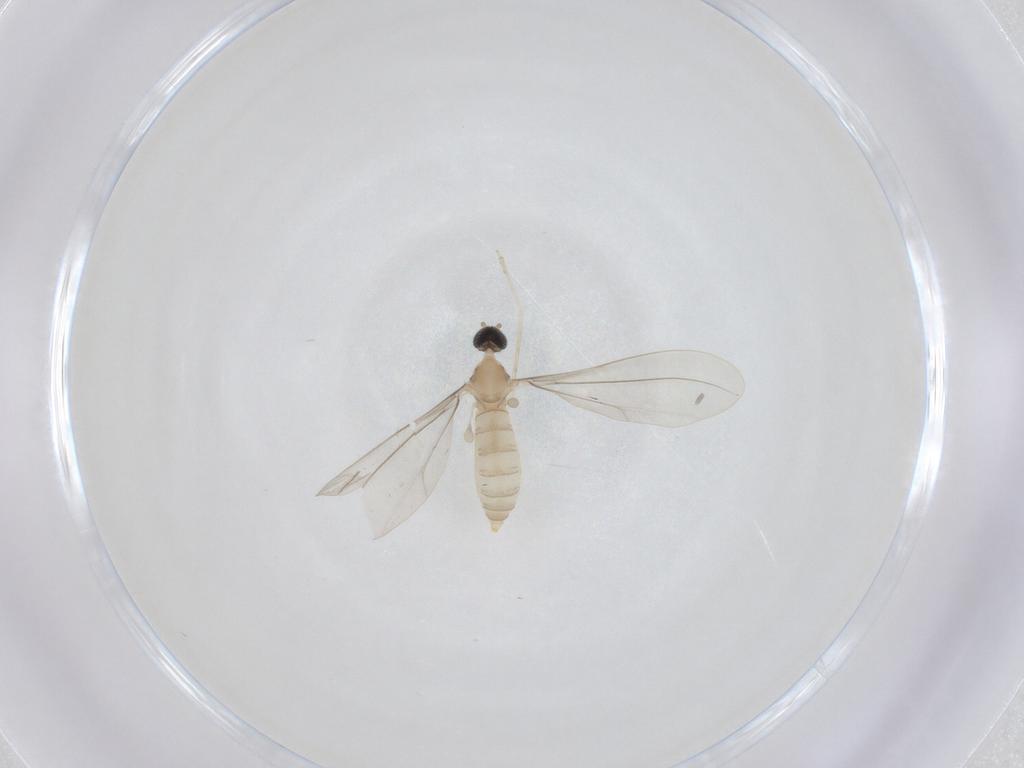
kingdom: Animalia
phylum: Arthropoda
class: Insecta
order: Diptera
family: Cecidomyiidae
